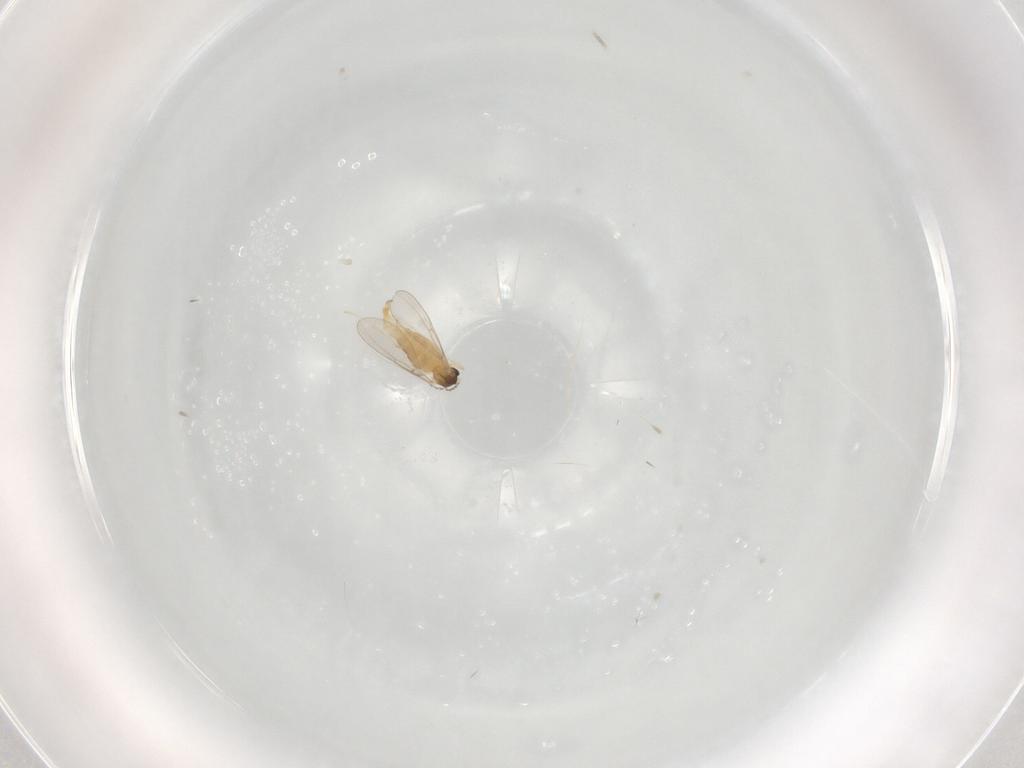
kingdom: Animalia
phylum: Arthropoda
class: Insecta
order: Diptera
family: Cecidomyiidae
